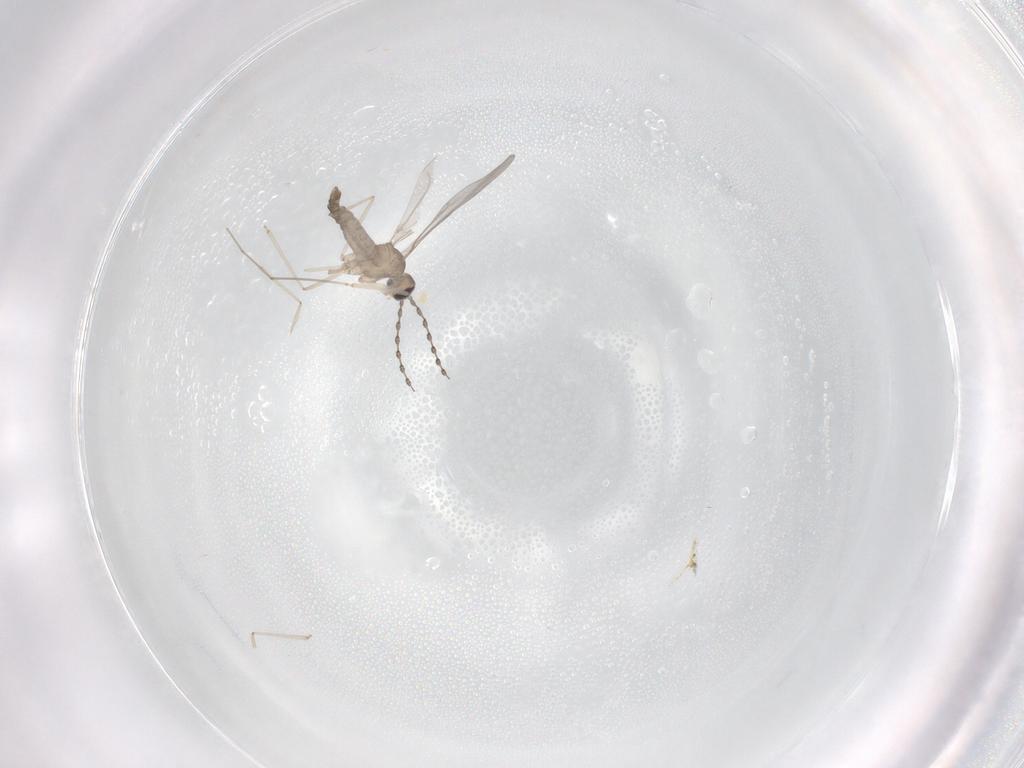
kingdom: Animalia
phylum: Arthropoda
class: Insecta
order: Diptera
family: Cecidomyiidae
